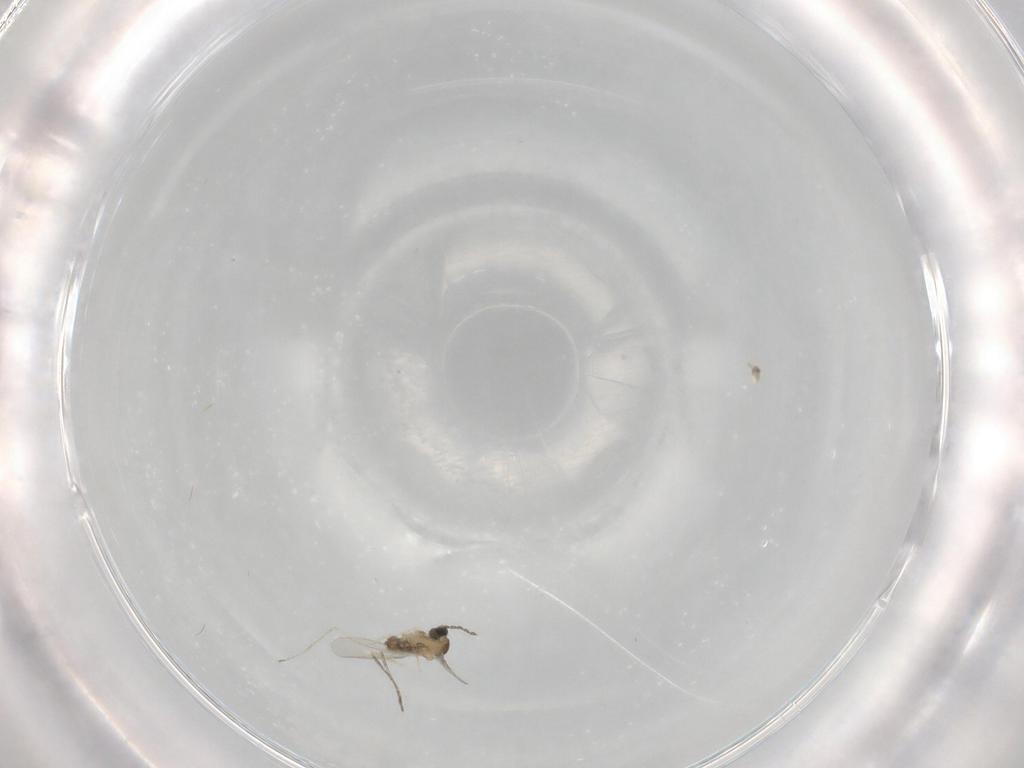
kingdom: Animalia
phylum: Arthropoda
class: Insecta
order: Diptera
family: Cecidomyiidae
